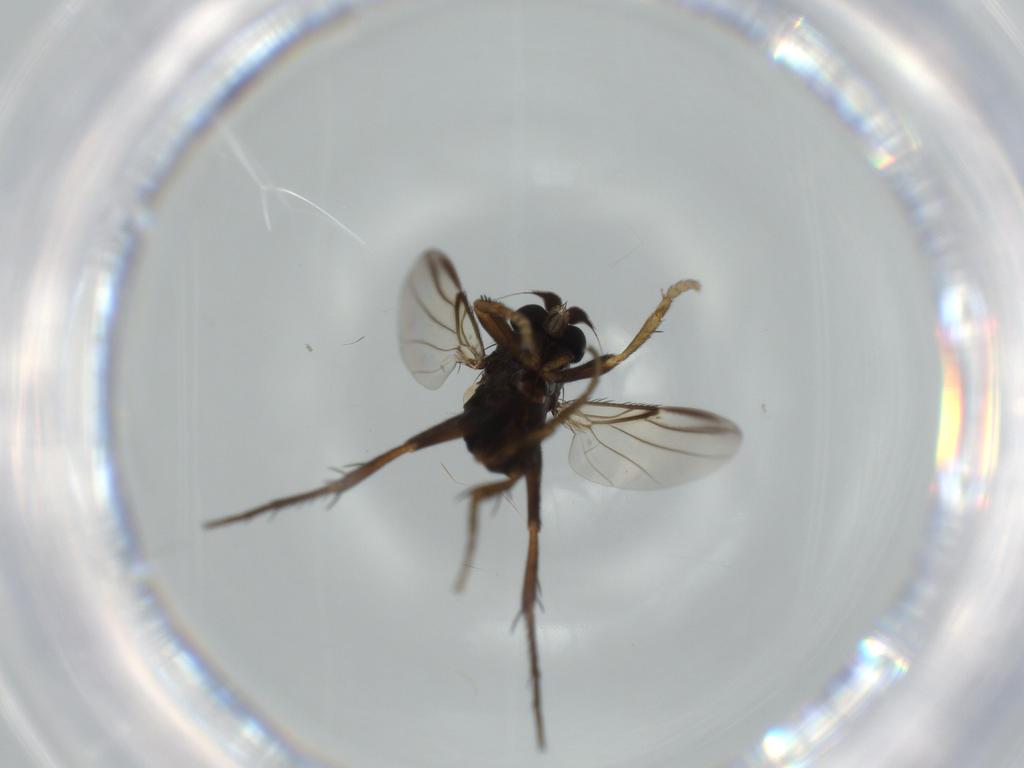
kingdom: Animalia
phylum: Arthropoda
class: Insecta
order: Diptera
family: Phoridae
